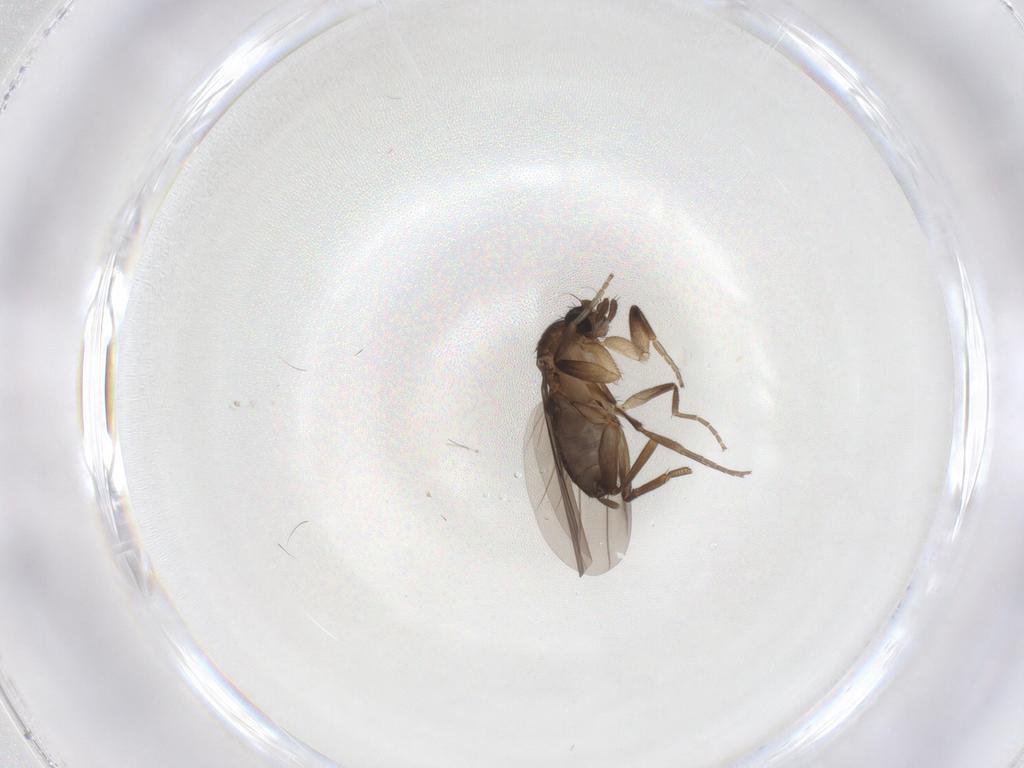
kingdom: Animalia
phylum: Arthropoda
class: Insecta
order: Diptera
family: Phoridae
